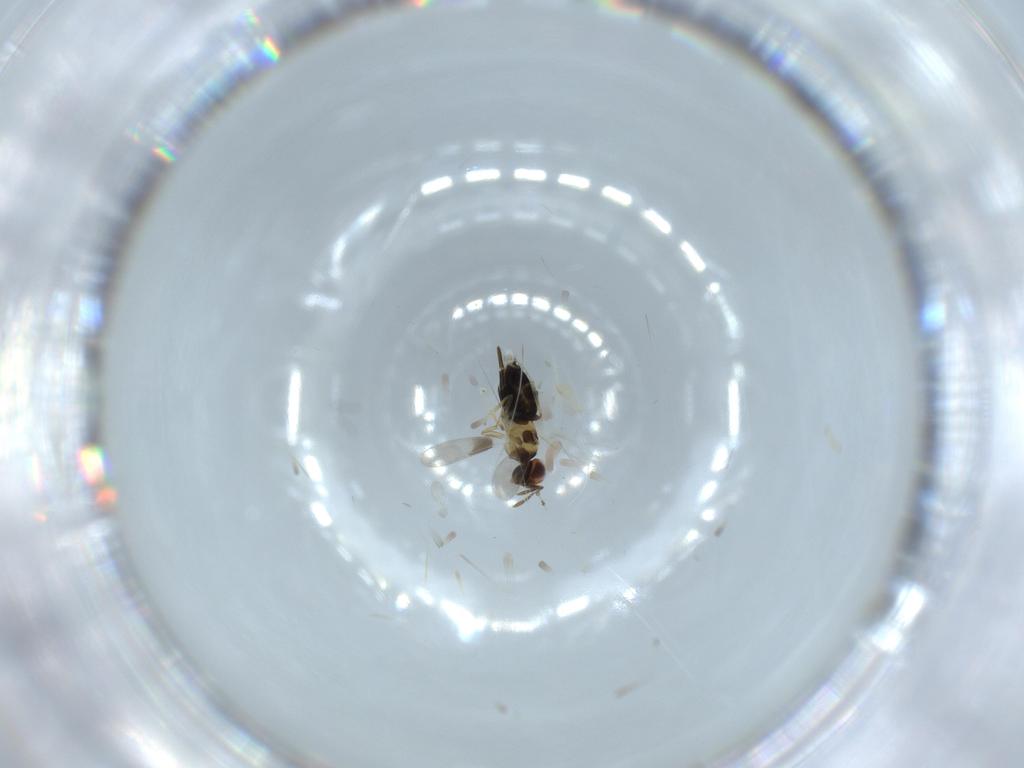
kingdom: Animalia
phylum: Arthropoda
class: Insecta
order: Hymenoptera
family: Aphelinidae
